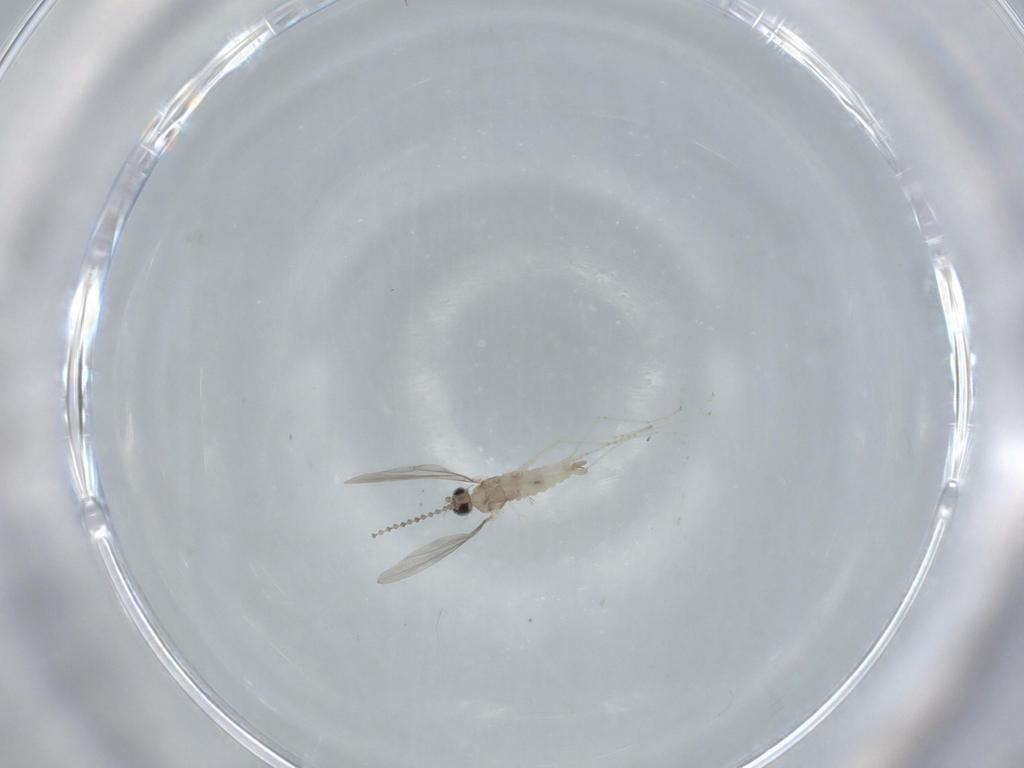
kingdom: Animalia
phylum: Arthropoda
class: Insecta
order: Diptera
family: Cecidomyiidae
